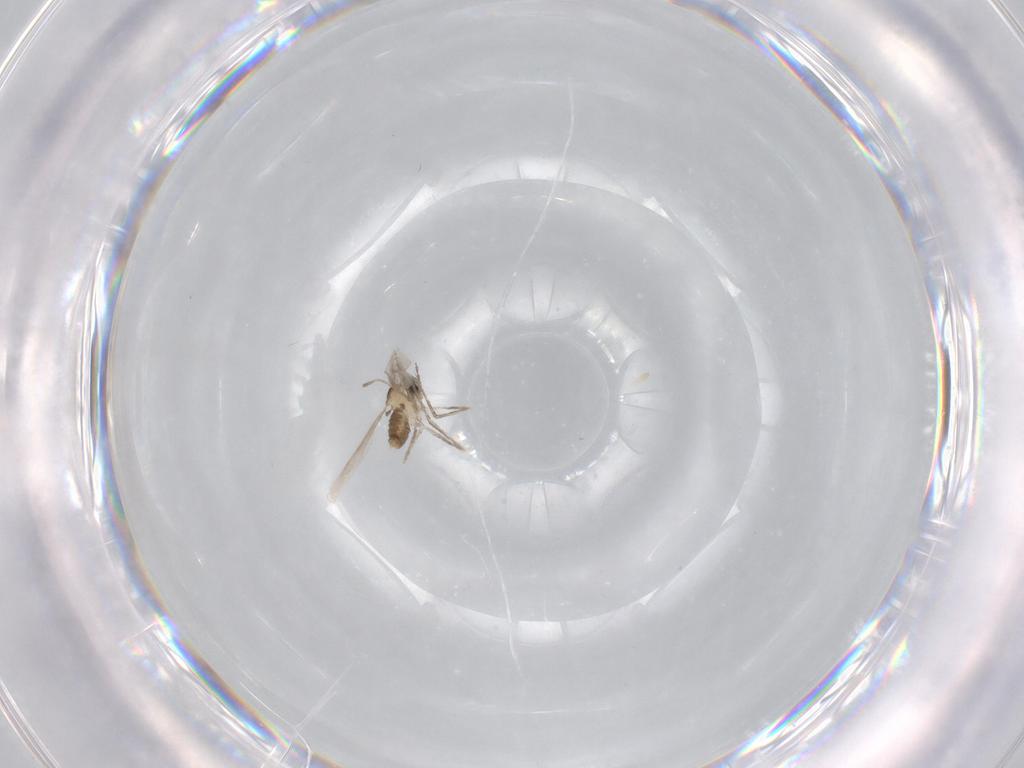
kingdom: Animalia
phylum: Arthropoda
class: Insecta
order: Diptera
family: Cecidomyiidae
